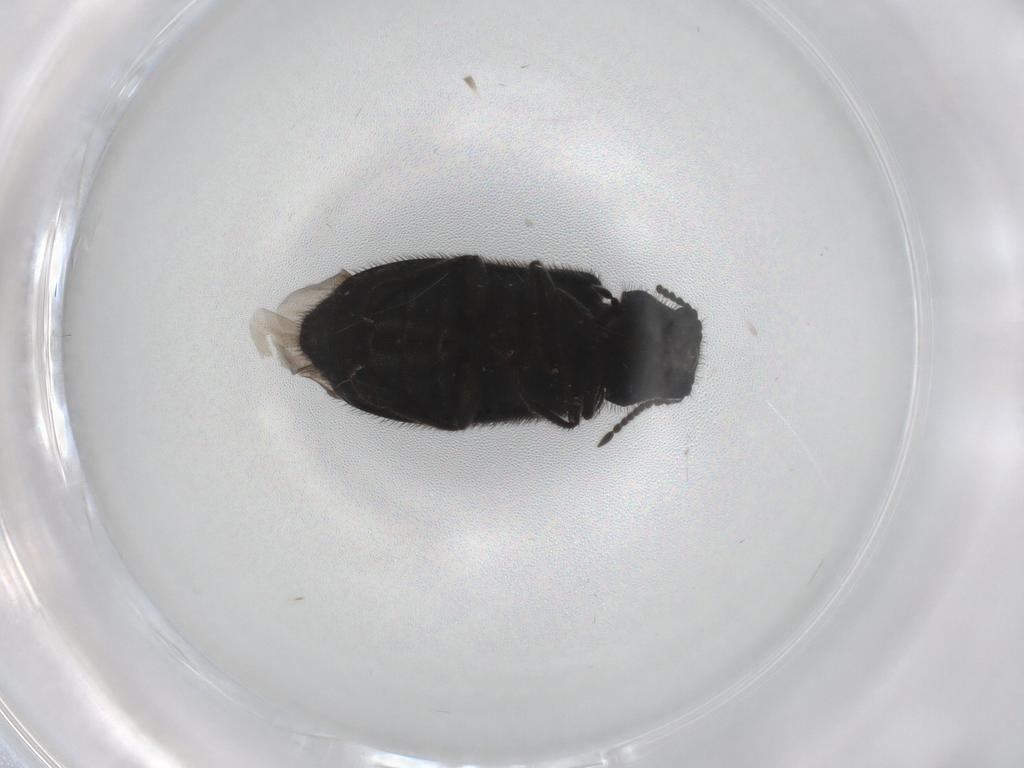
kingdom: Animalia
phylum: Arthropoda
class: Insecta
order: Coleoptera
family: Melyridae
